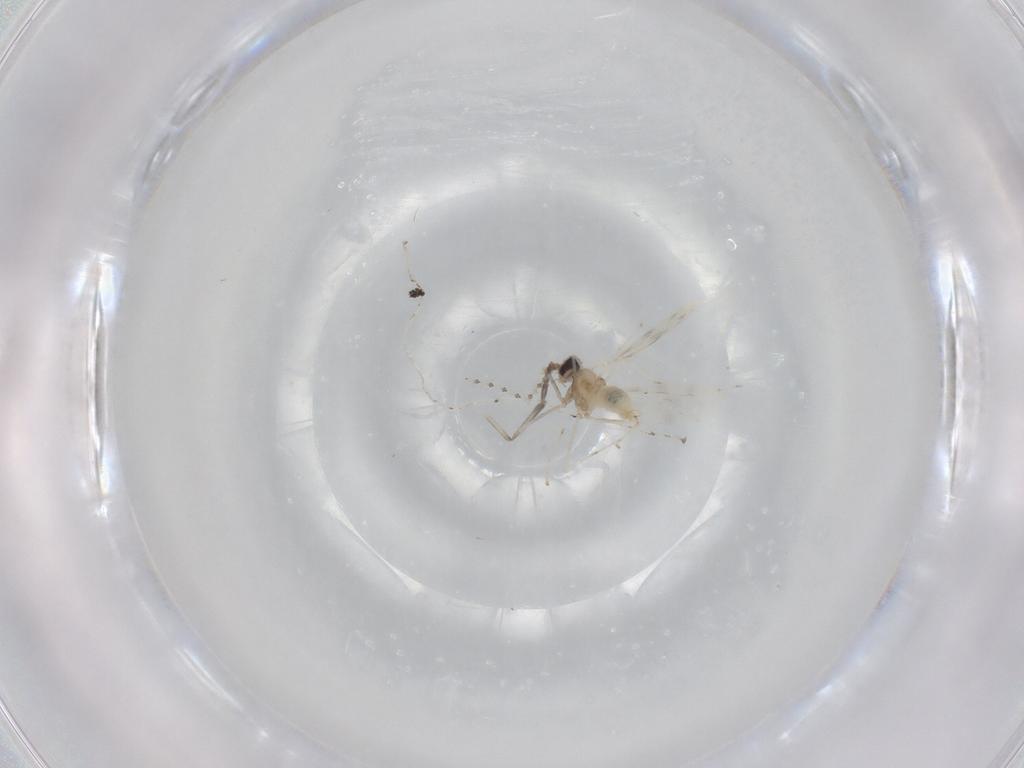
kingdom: Animalia
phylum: Arthropoda
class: Insecta
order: Diptera
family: Cecidomyiidae
